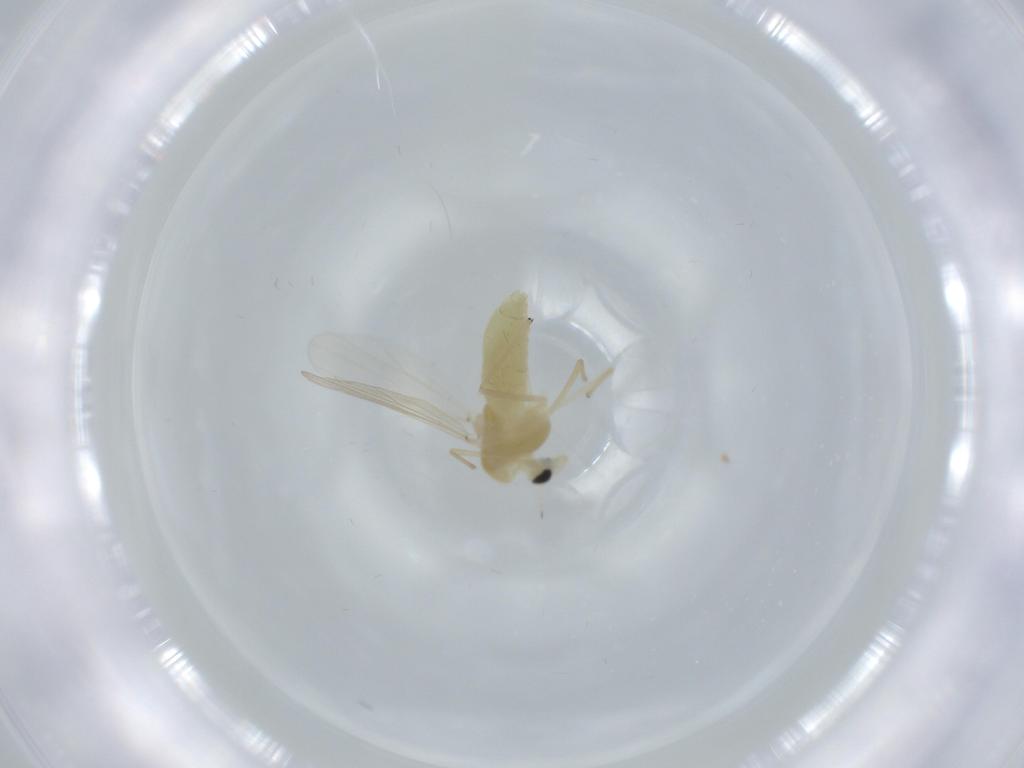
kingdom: Animalia
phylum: Arthropoda
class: Insecta
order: Diptera
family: Chironomidae
